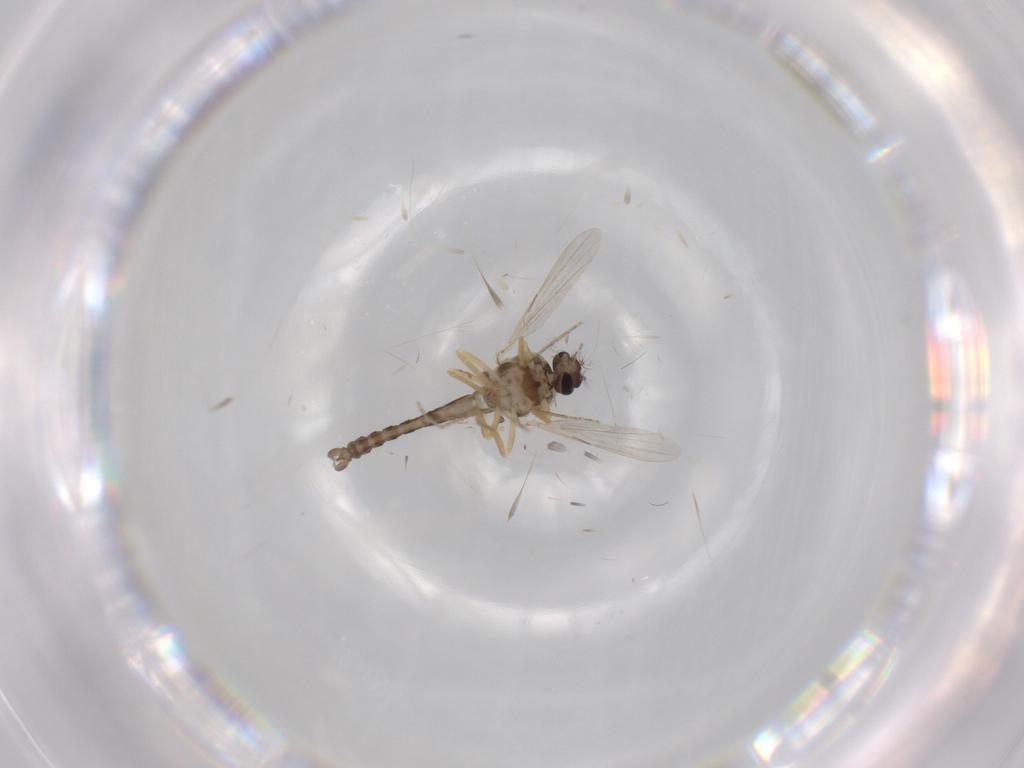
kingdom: Animalia
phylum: Arthropoda
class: Insecta
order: Diptera
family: Ceratopogonidae
